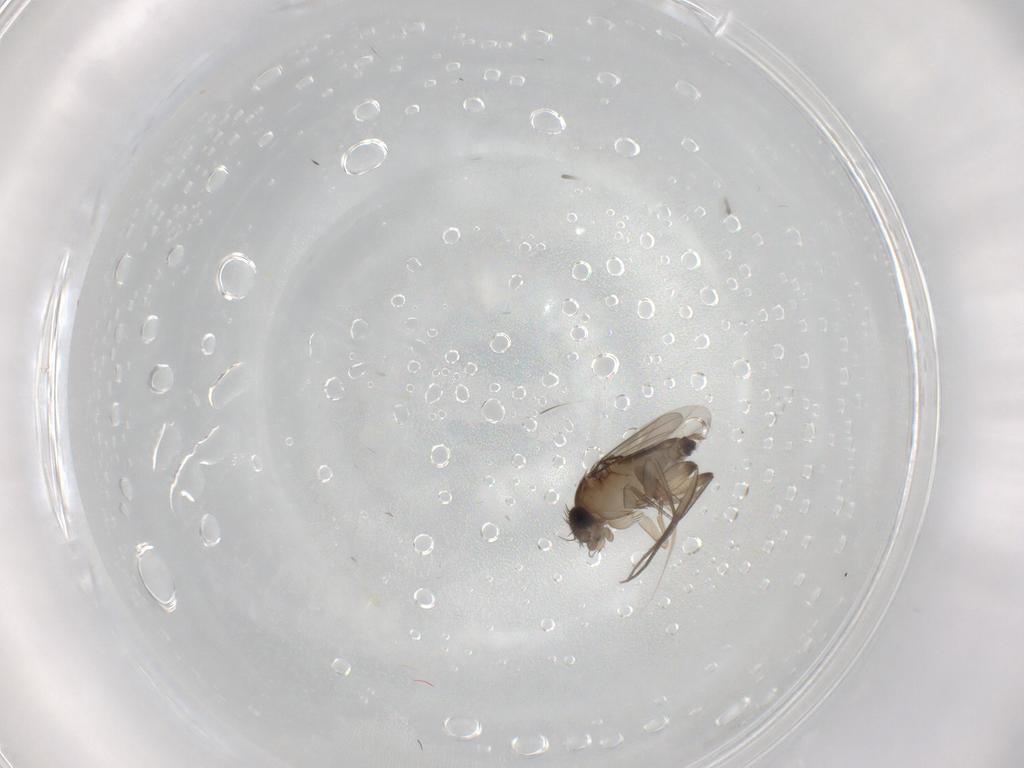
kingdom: Animalia
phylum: Arthropoda
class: Insecta
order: Diptera
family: Phoridae
